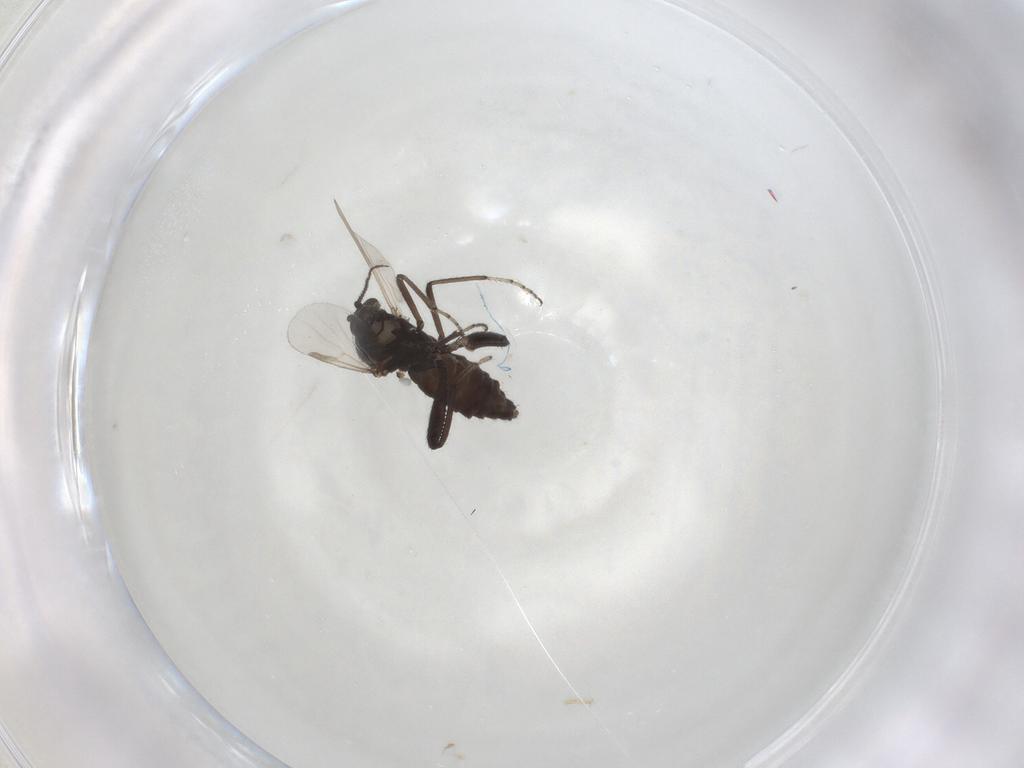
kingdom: Animalia
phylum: Arthropoda
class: Insecta
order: Diptera
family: Ceratopogonidae
